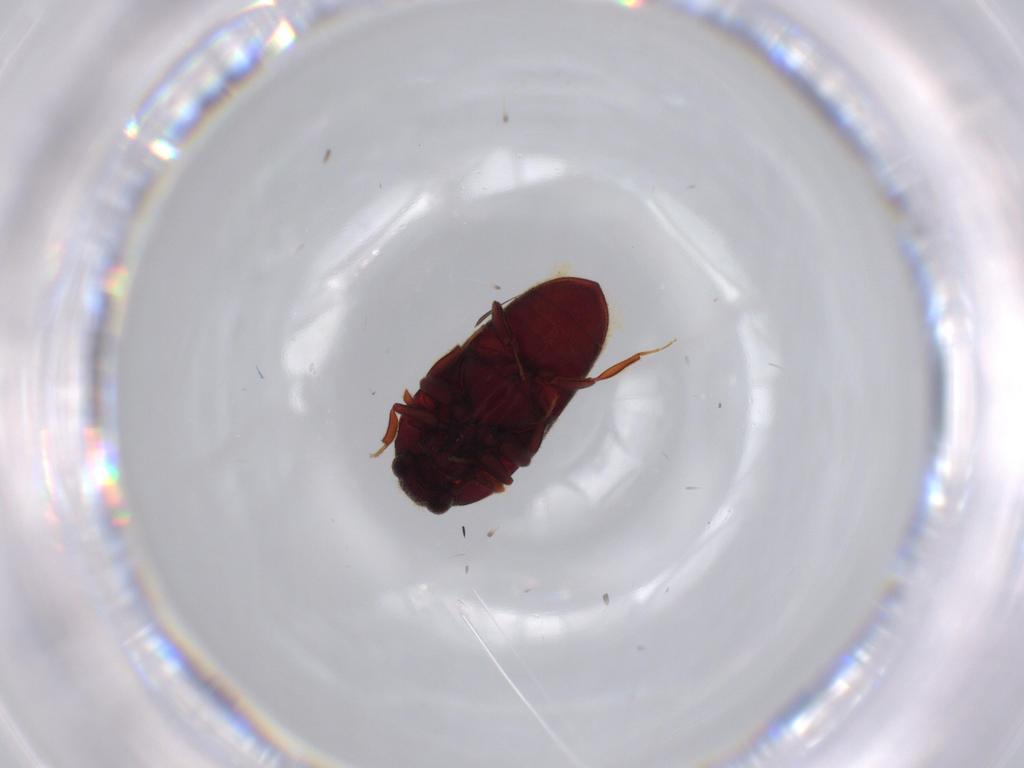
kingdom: Animalia
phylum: Arthropoda
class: Insecta
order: Coleoptera
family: Throscidae
